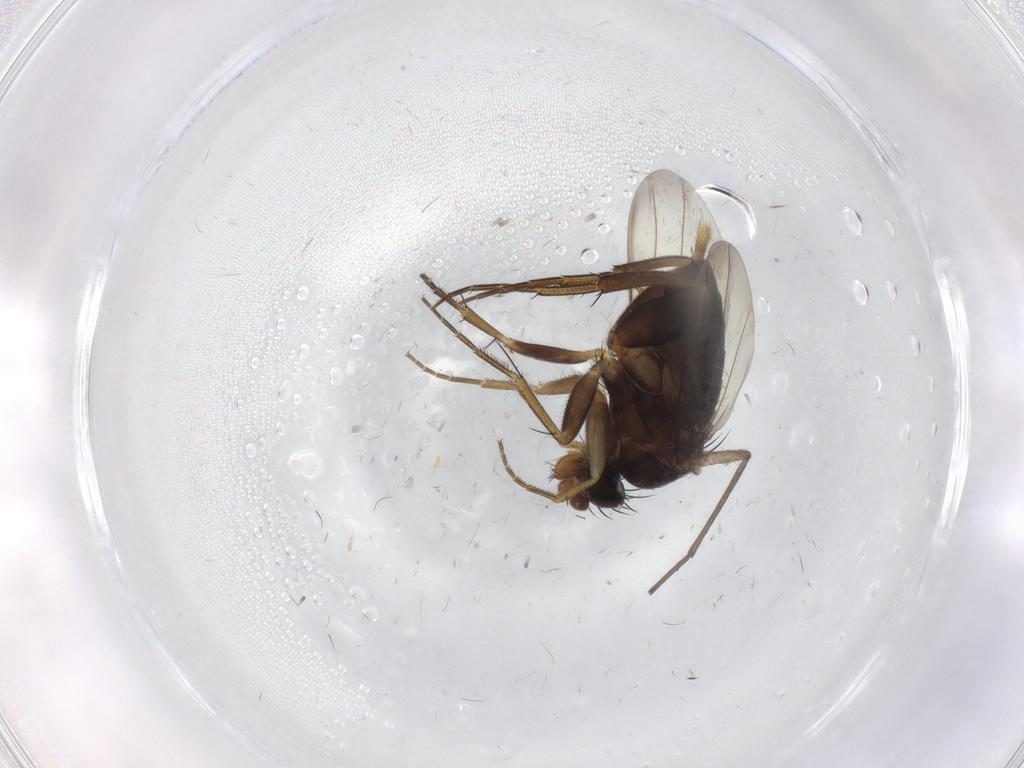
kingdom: Animalia
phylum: Arthropoda
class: Insecta
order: Diptera
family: Phoridae
